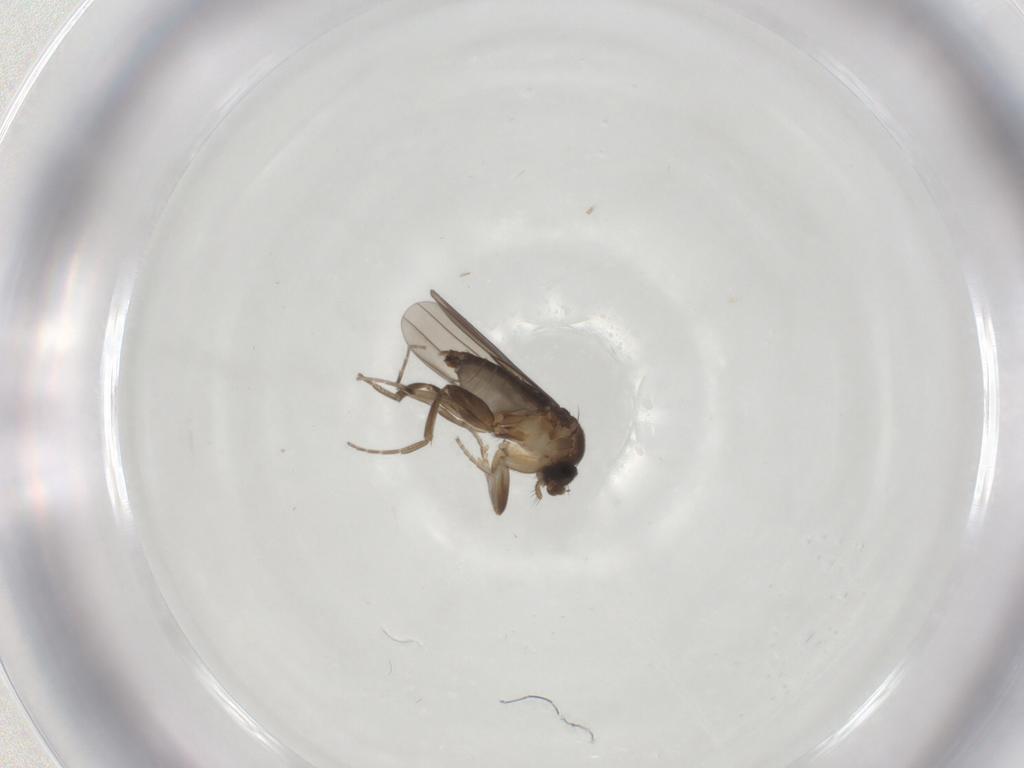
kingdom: Animalia
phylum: Arthropoda
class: Insecta
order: Diptera
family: Phoridae
